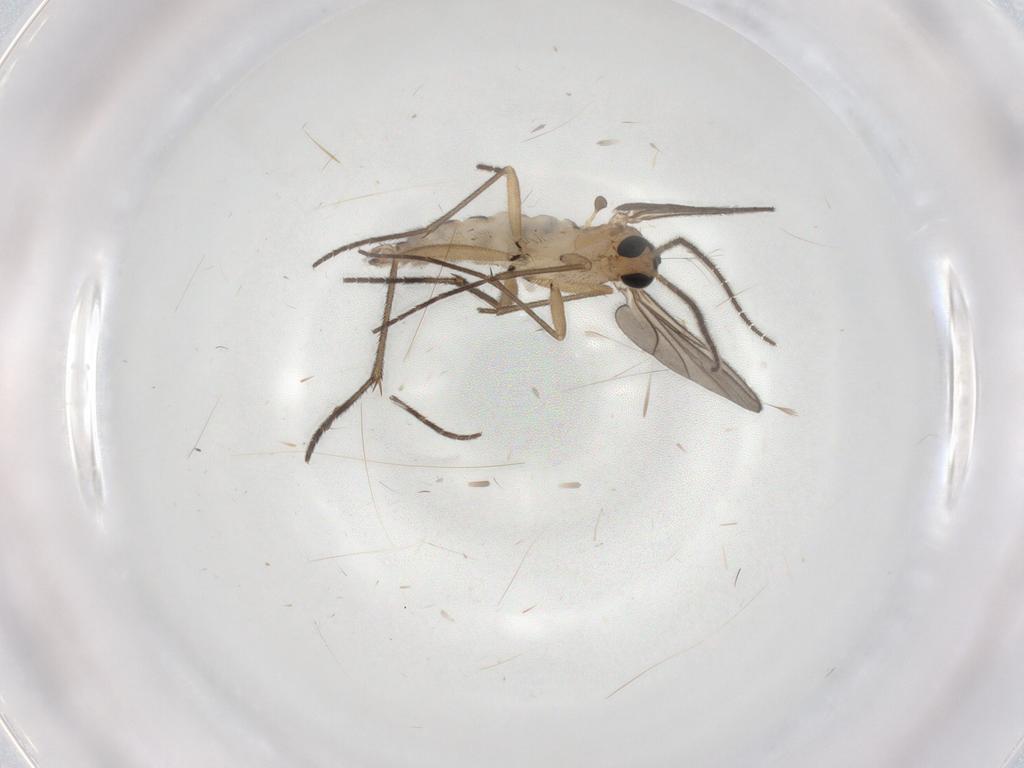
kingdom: Animalia
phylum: Arthropoda
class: Insecta
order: Diptera
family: Sciaridae
